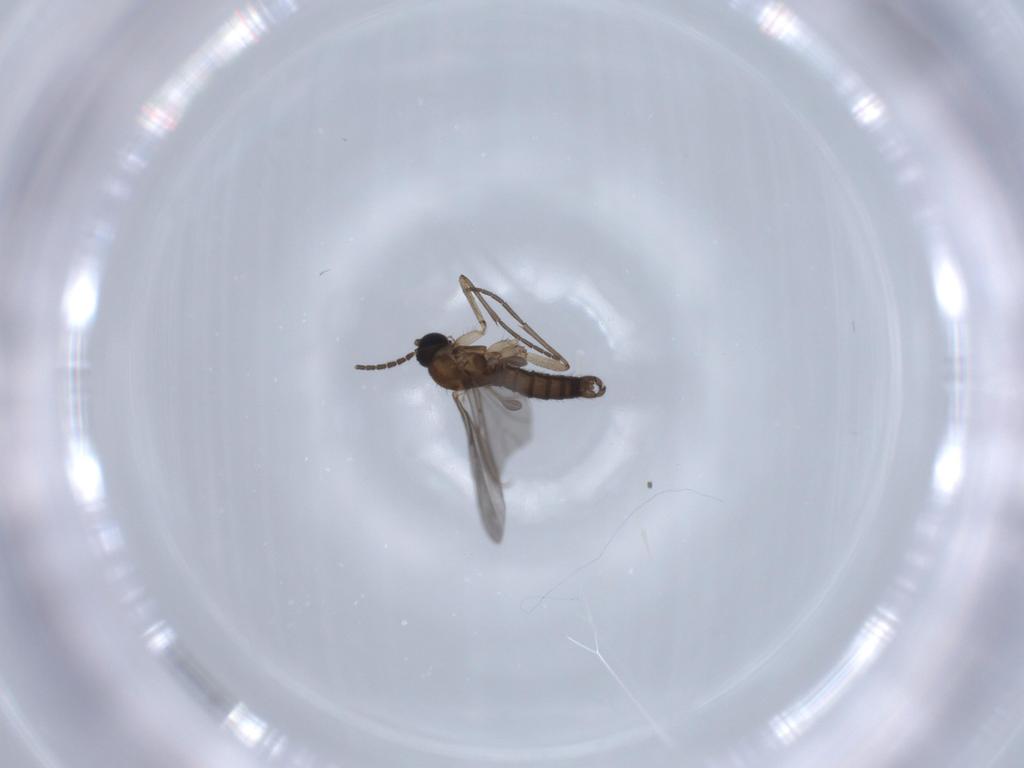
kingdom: Animalia
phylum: Arthropoda
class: Insecta
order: Diptera
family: Sciaridae
